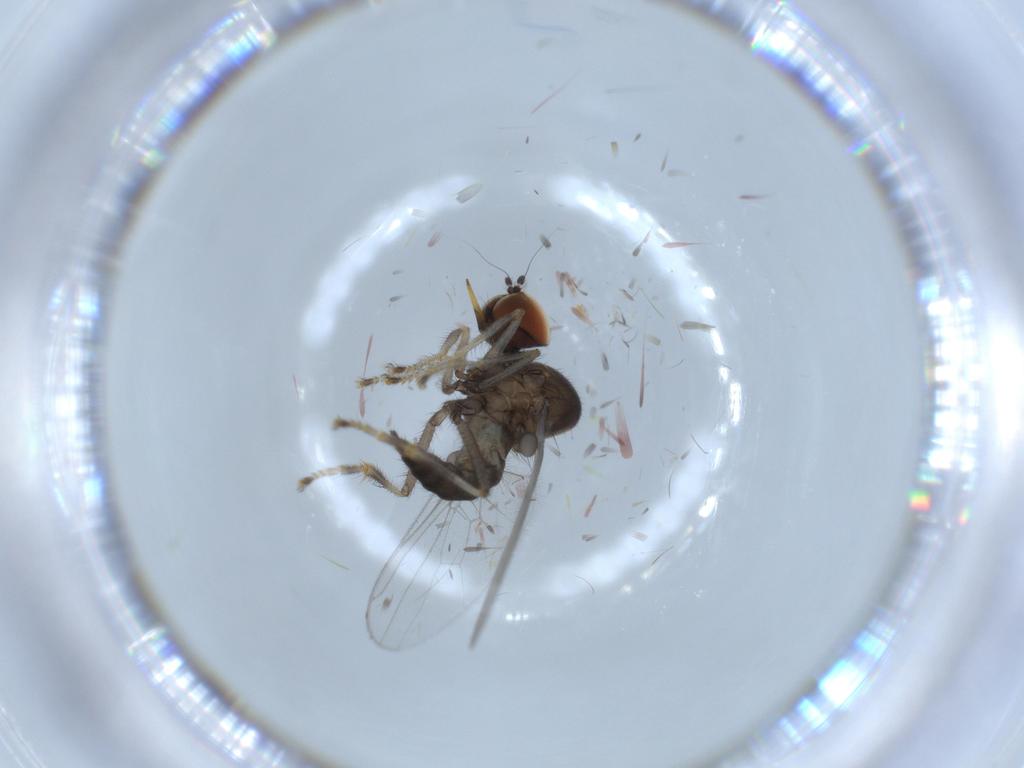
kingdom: Animalia
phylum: Arthropoda
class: Insecta
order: Diptera
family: Hybotidae
